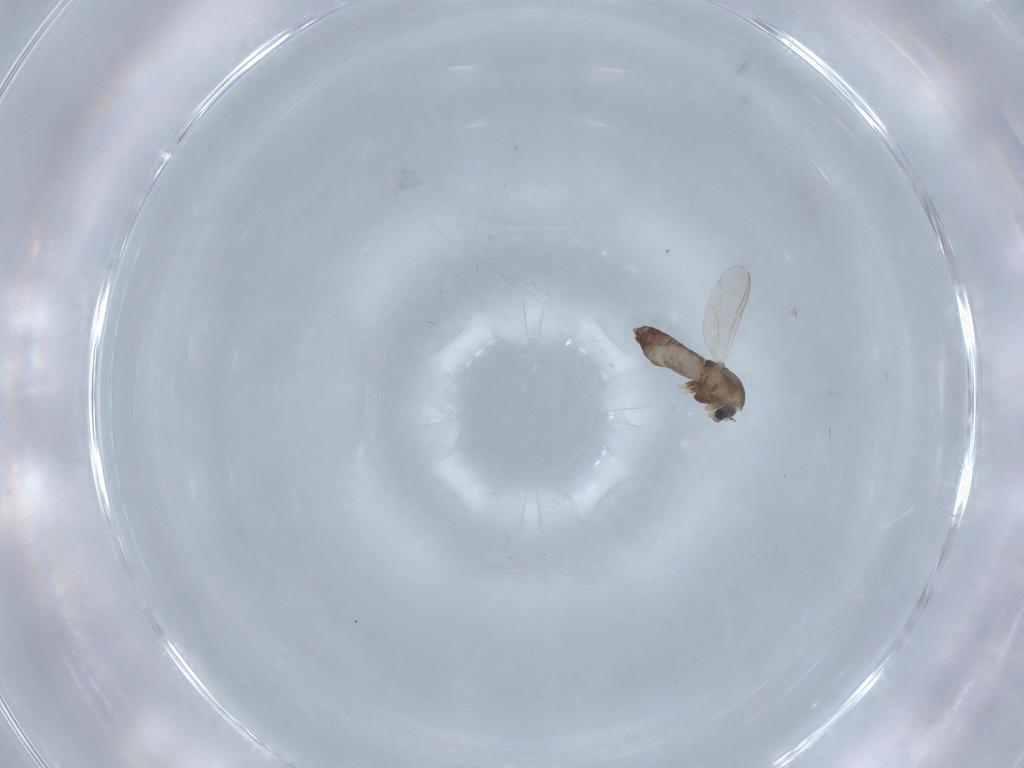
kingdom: Animalia
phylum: Arthropoda
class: Insecta
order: Diptera
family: Chironomidae
